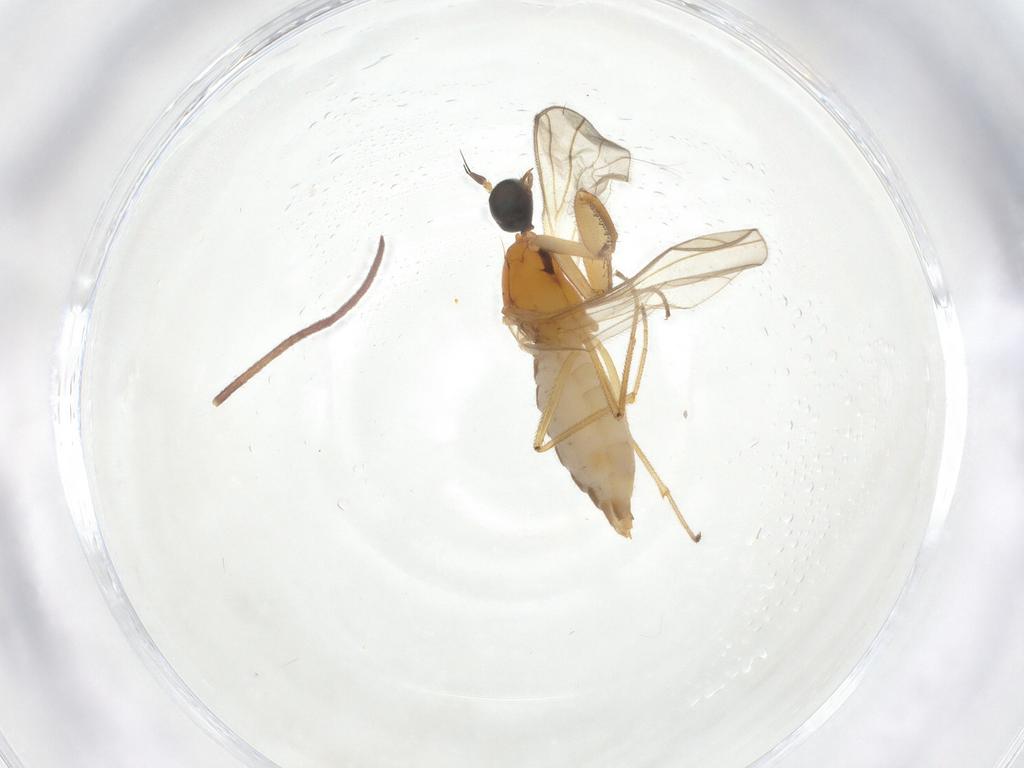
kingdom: Animalia
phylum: Arthropoda
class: Insecta
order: Diptera
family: Empididae
